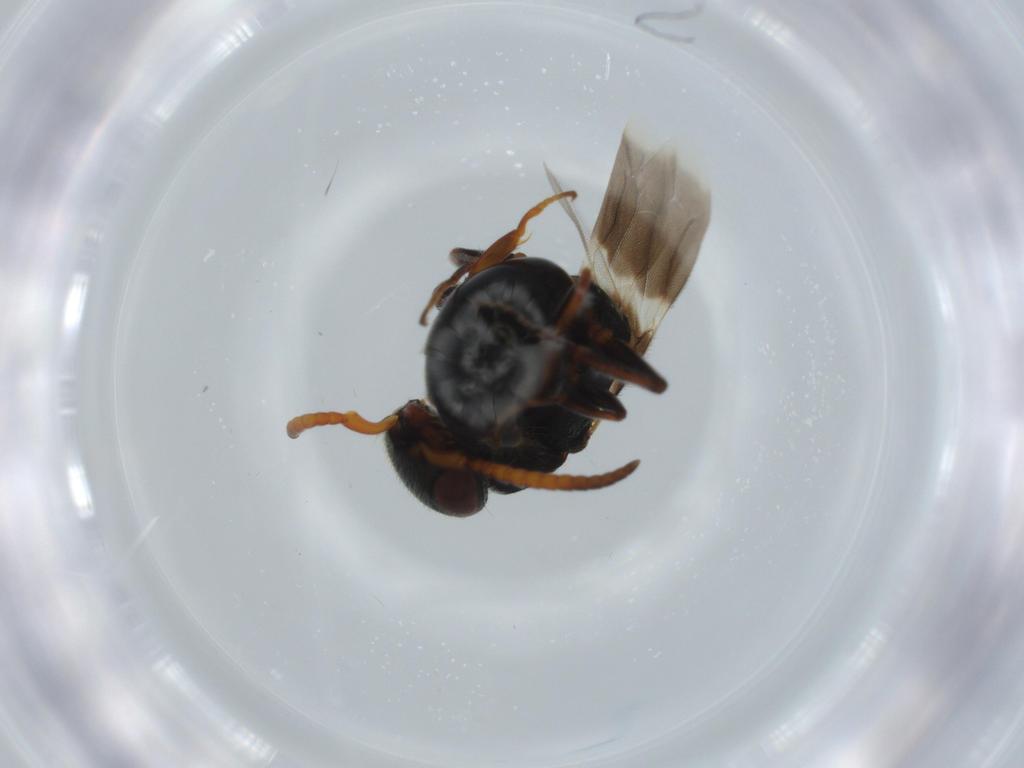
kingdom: Animalia
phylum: Arthropoda
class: Insecta
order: Hymenoptera
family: Bethylidae
